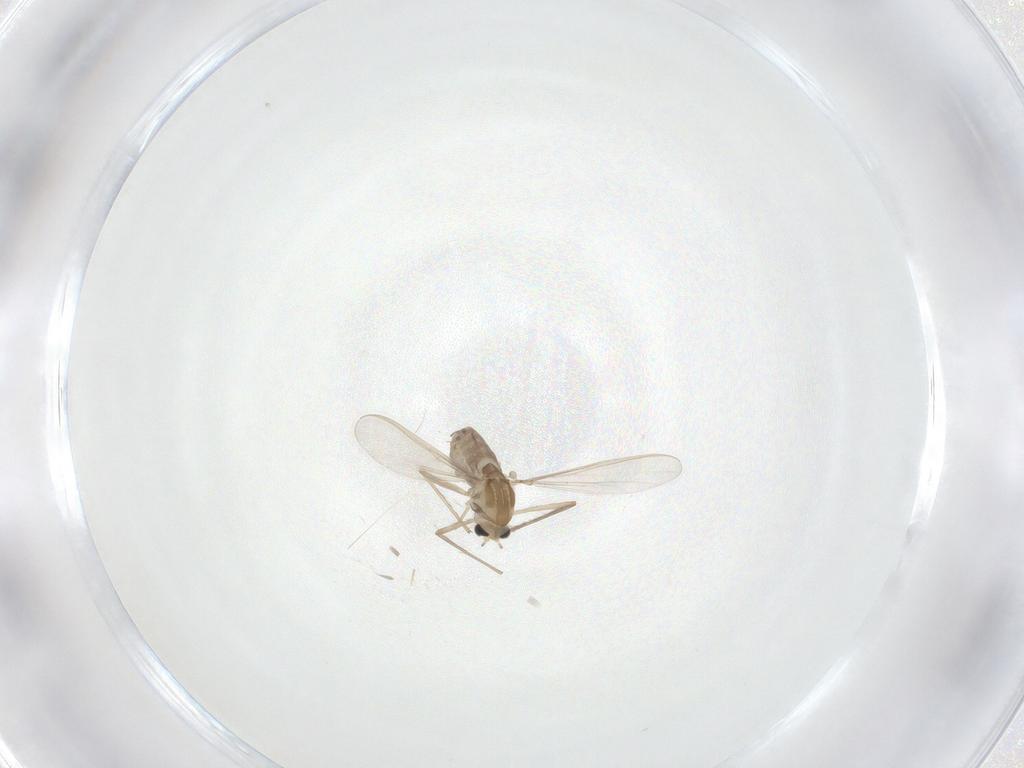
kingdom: Animalia
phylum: Arthropoda
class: Insecta
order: Diptera
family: Chironomidae
